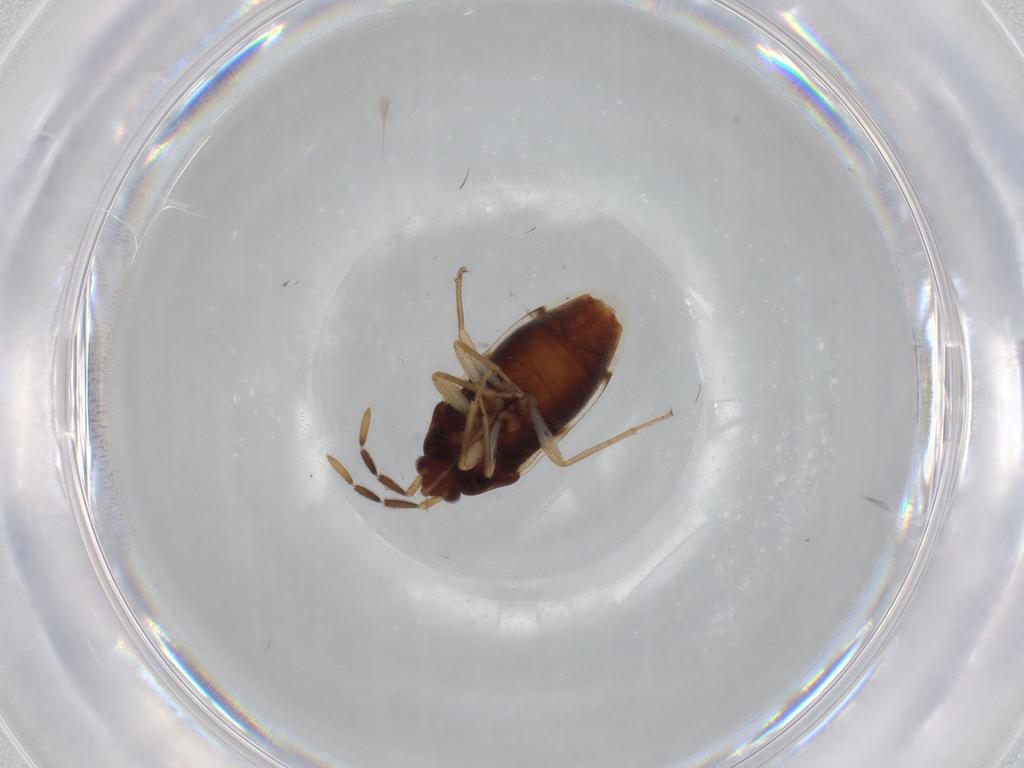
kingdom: Animalia
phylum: Arthropoda
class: Insecta
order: Hemiptera
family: Rhyparochromidae
